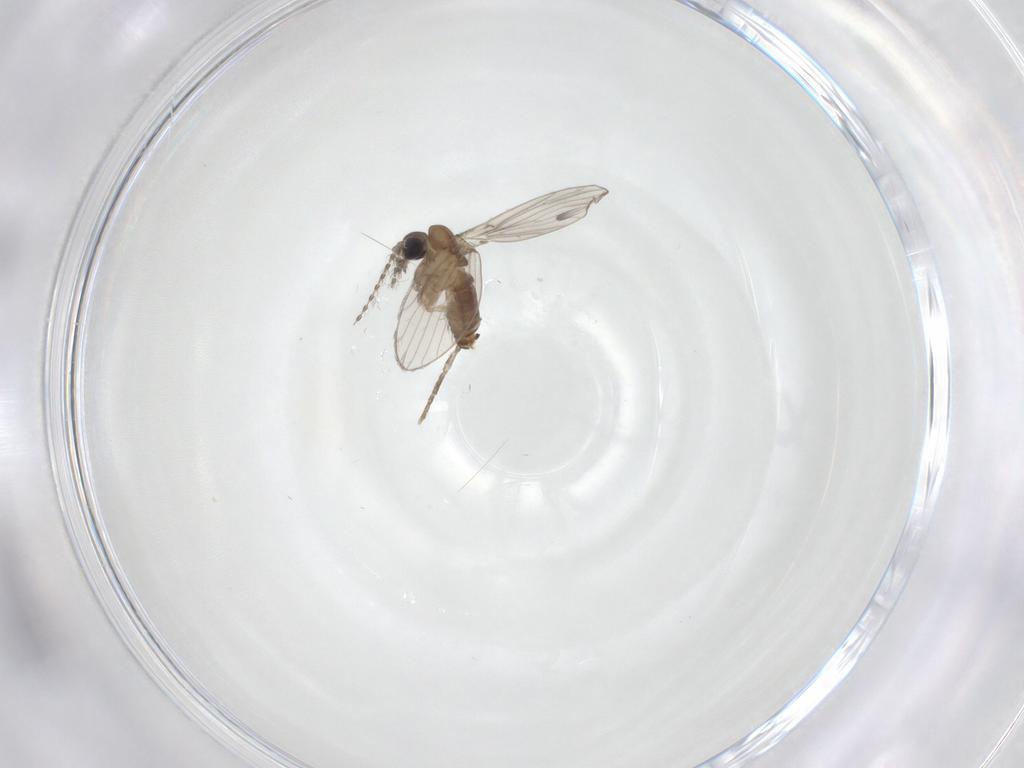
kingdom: Animalia
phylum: Arthropoda
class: Insecta
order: Diptera
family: Psychodidae
